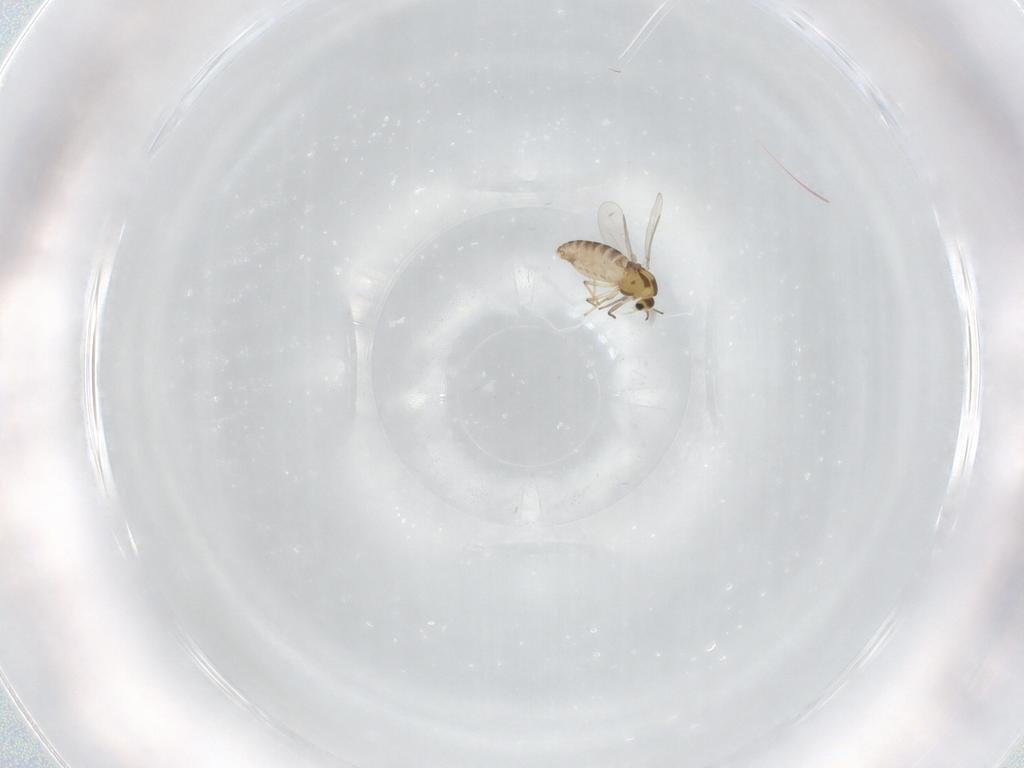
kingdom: Animalia
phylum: Arthropoda
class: Insecta
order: Diptera
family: Chironomidae
